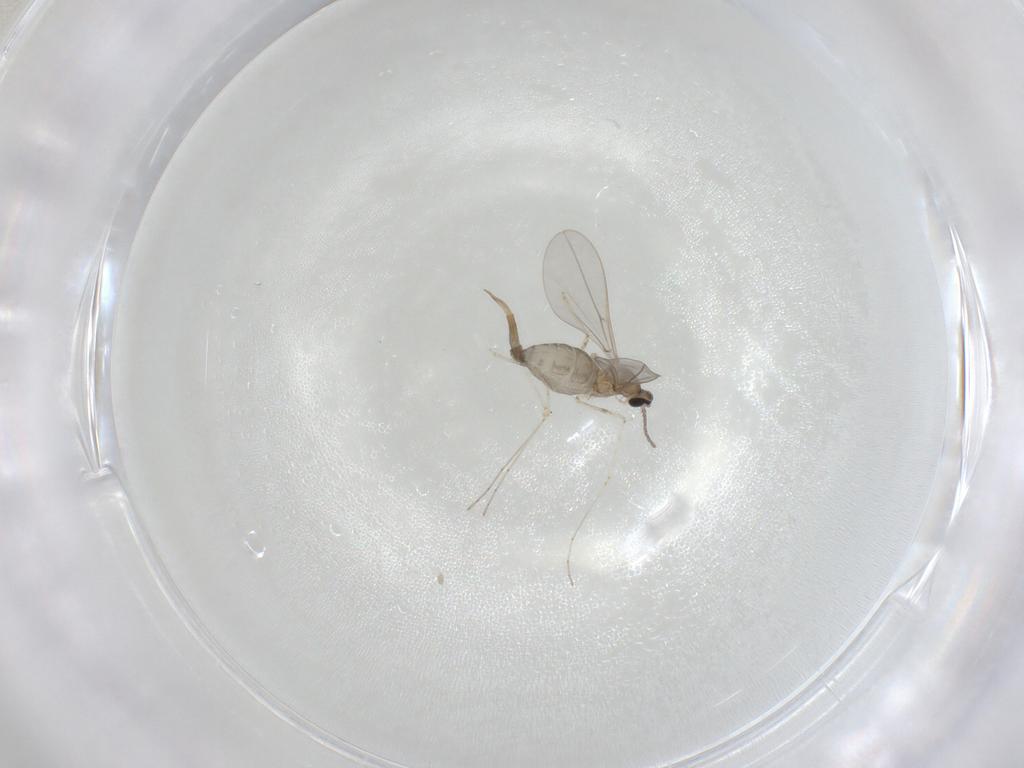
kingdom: Animalia
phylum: Arthropoda
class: Insecta
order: Diptera
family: Cecidomyiidae
